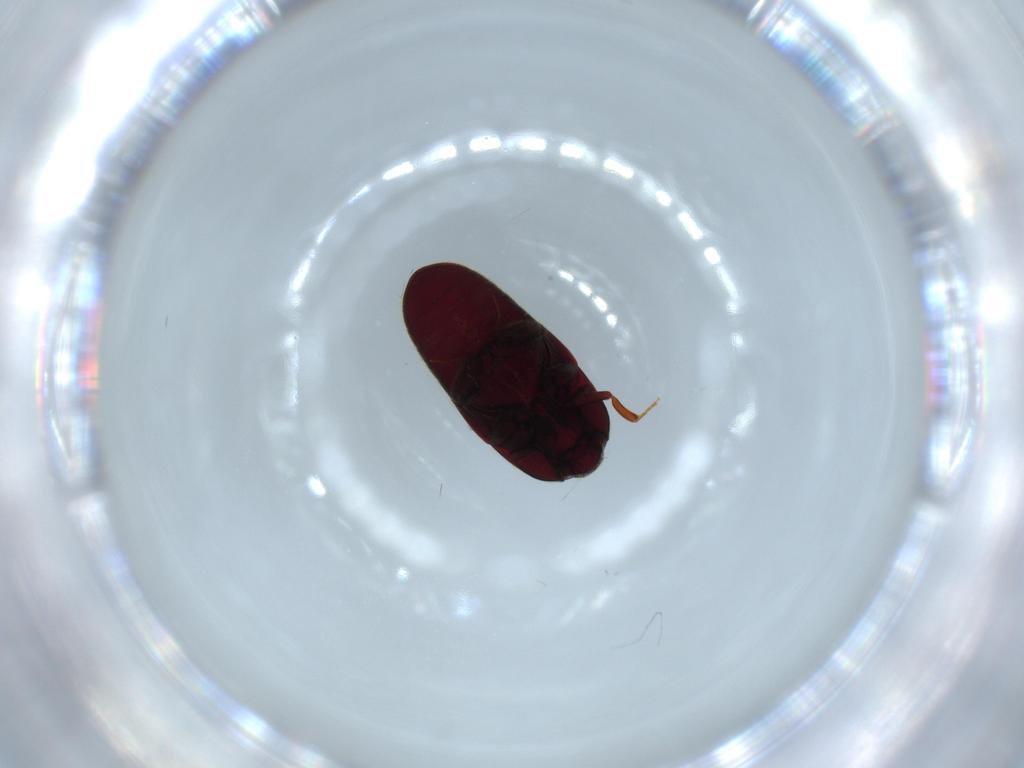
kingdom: Animalia
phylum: Arthropoda
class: Insecta
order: Coleoptera
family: Throscidae
